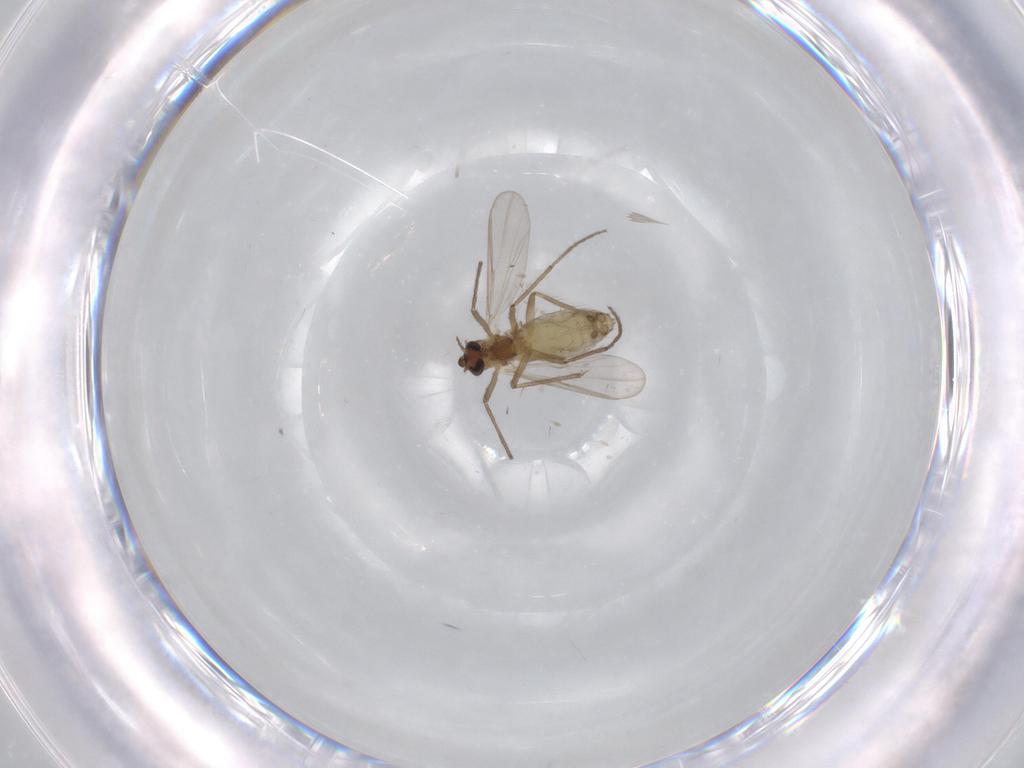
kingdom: Animalia
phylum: Arthropoda
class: Insecta
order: Diptera
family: Chironomidae
